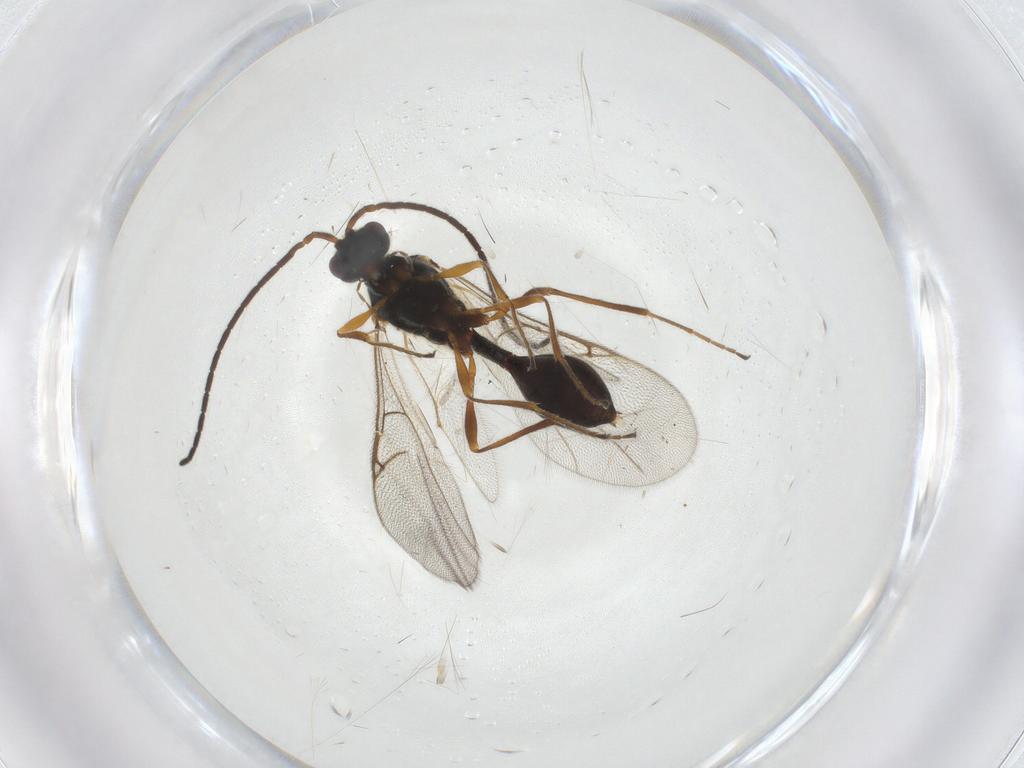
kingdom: Animalia
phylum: Arthropoda
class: Insecta
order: Hymenoptera
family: Diapriidae
